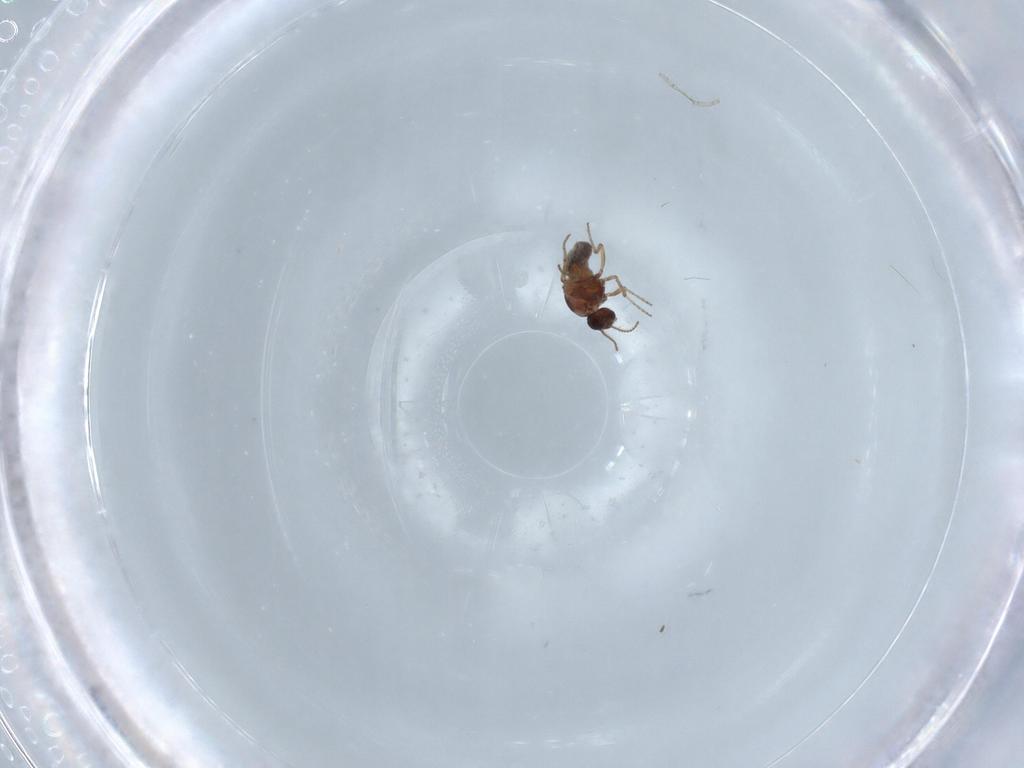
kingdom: Animalia
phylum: Arthropoda
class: Insecta
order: Diptera
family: Ceratopogonidae
